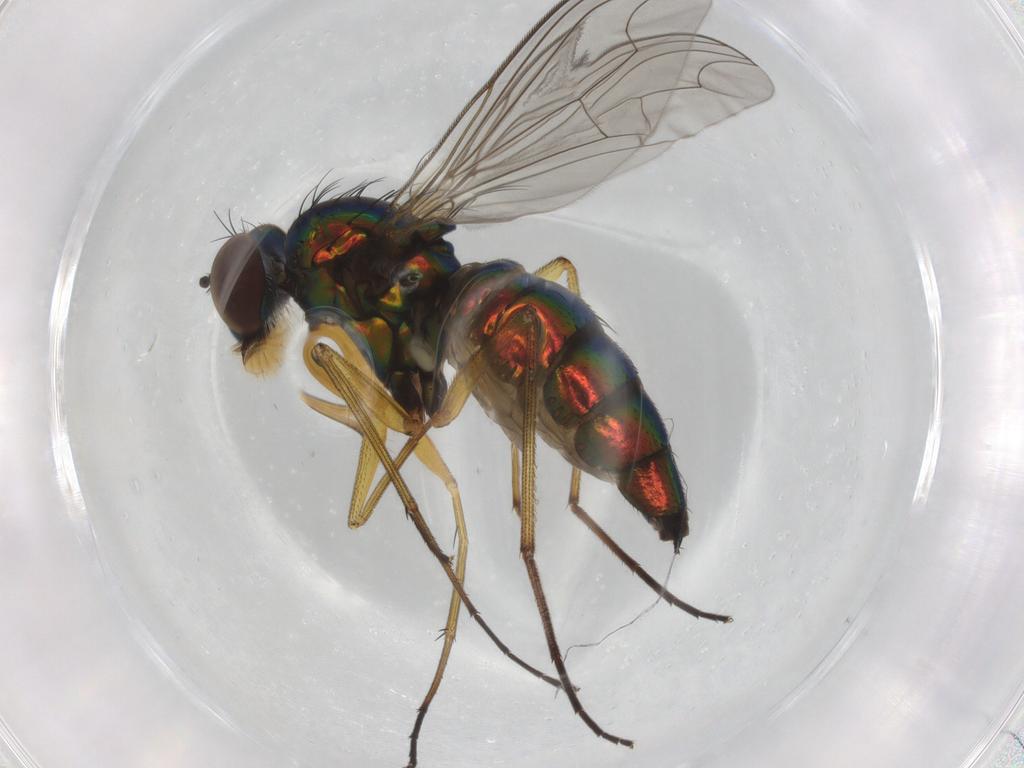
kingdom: Animalia
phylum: Arthropoda
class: Insecta
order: Diptera
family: Dolichopodidae
